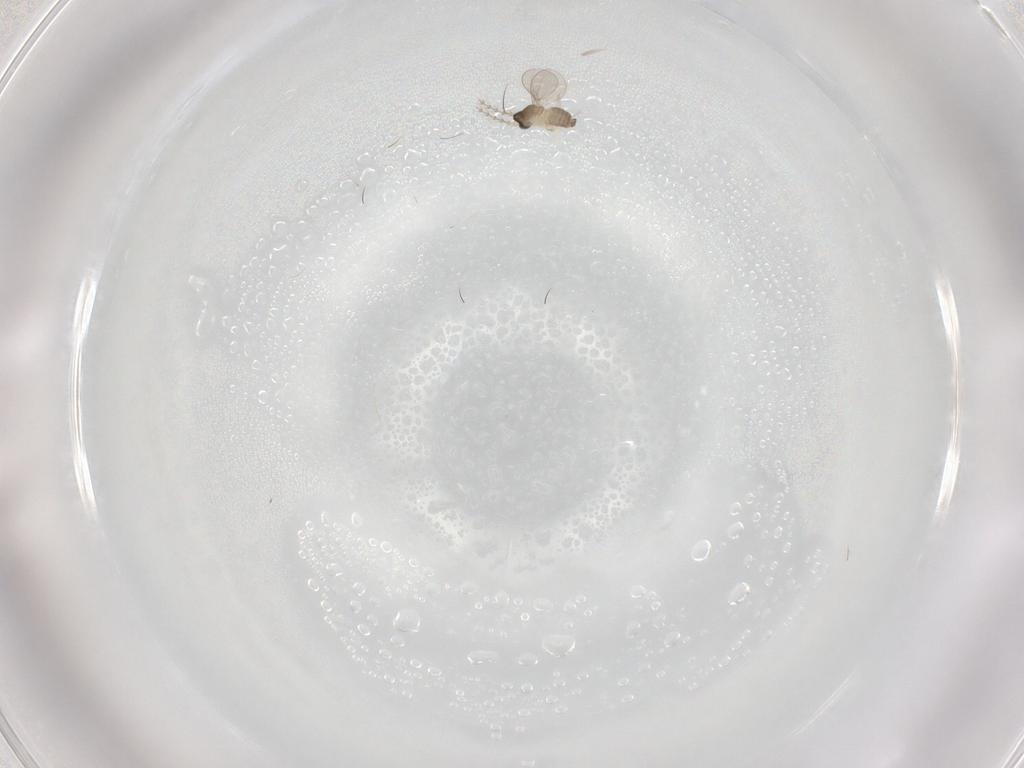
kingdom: Animalia
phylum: Arthropoda
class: Insecta
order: Diptera
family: Cecidomyiidae
